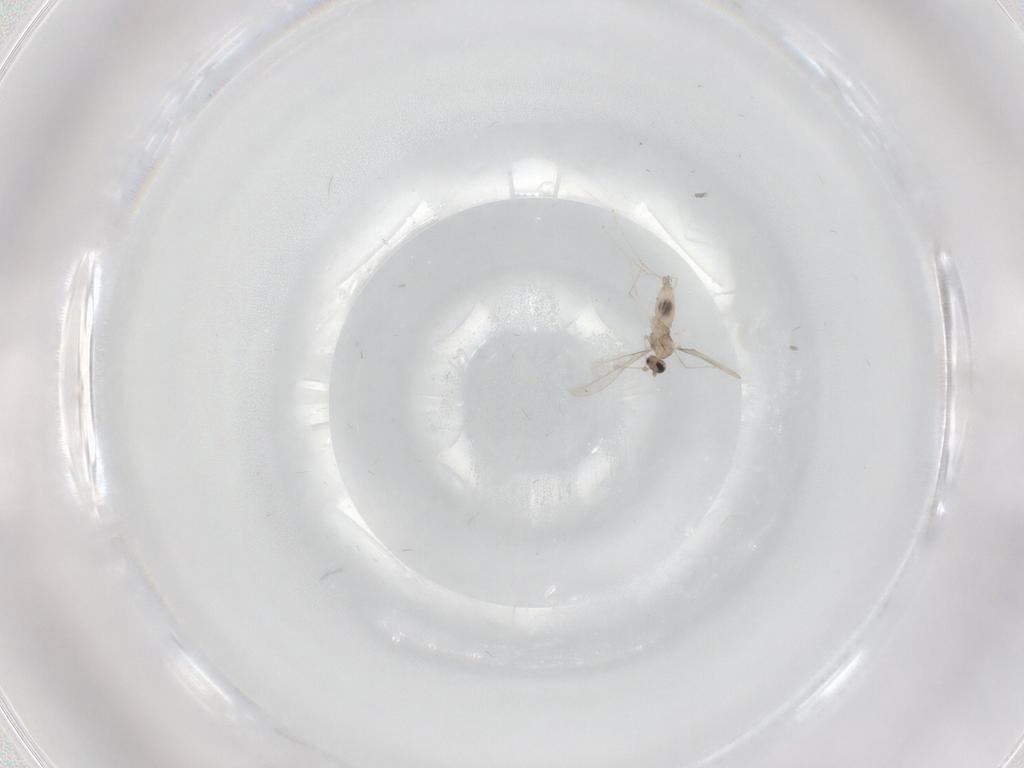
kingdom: Animalia
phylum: Arthropoda
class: Insecta
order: Diptera
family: Cecidomyiidae
